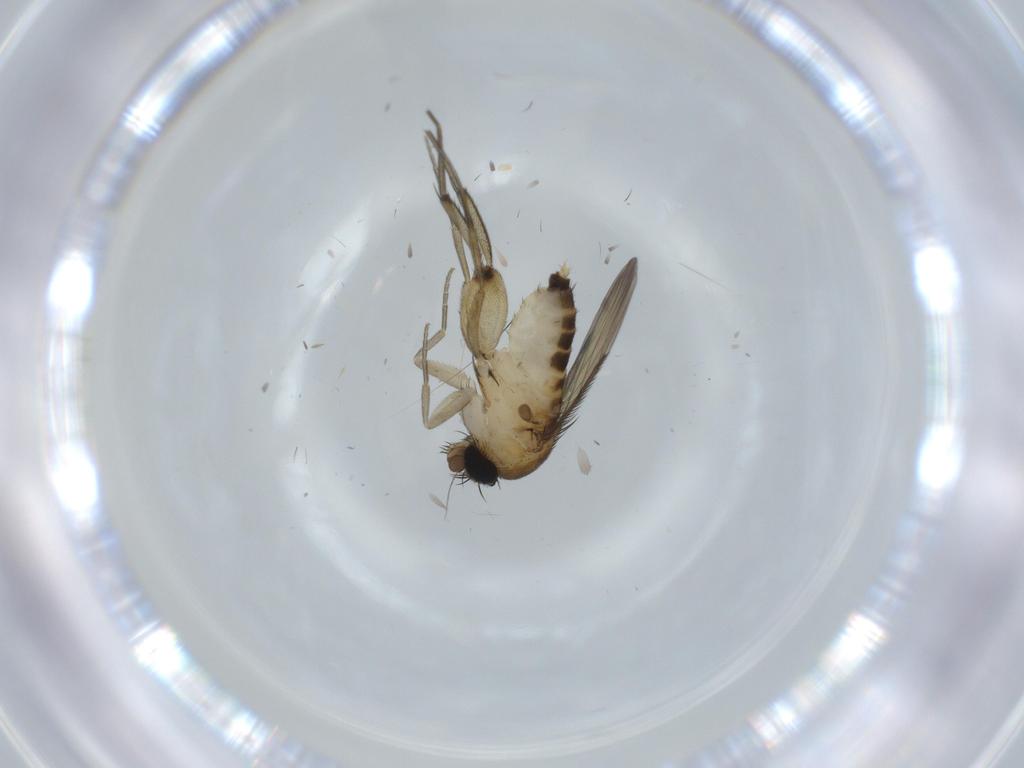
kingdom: Animalia
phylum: Arthropoda
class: Insecta
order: Diptera
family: Phoridae
